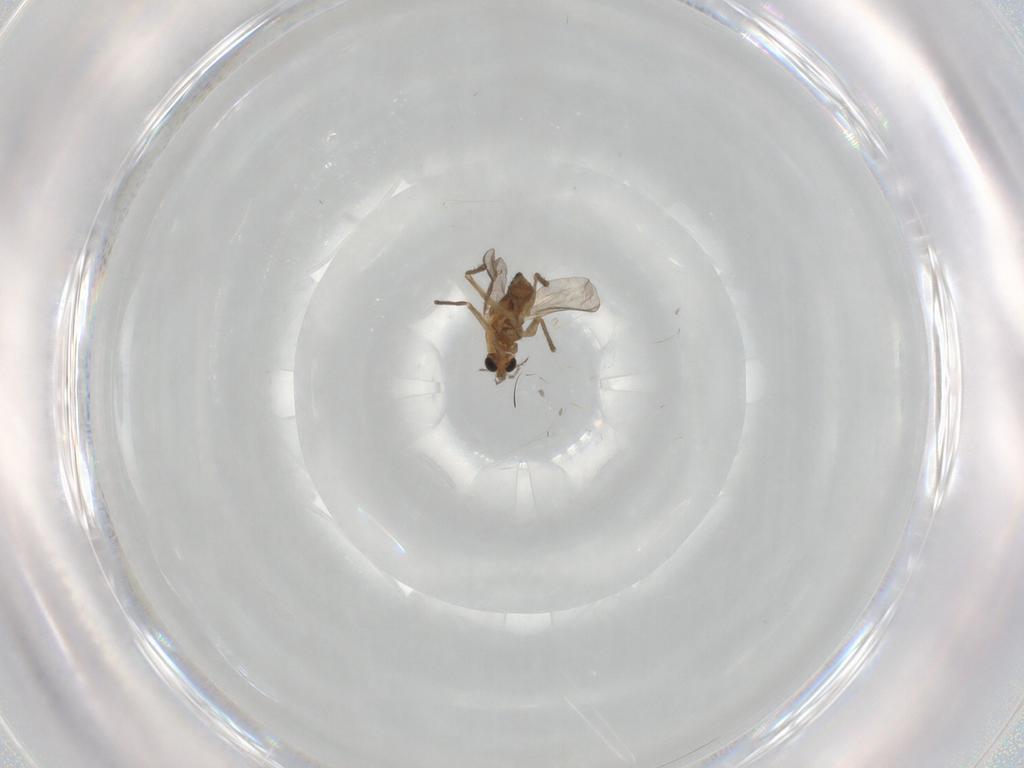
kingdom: Animalia
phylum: Arthropoda
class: Insecta
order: Diptera
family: Chironomidae
